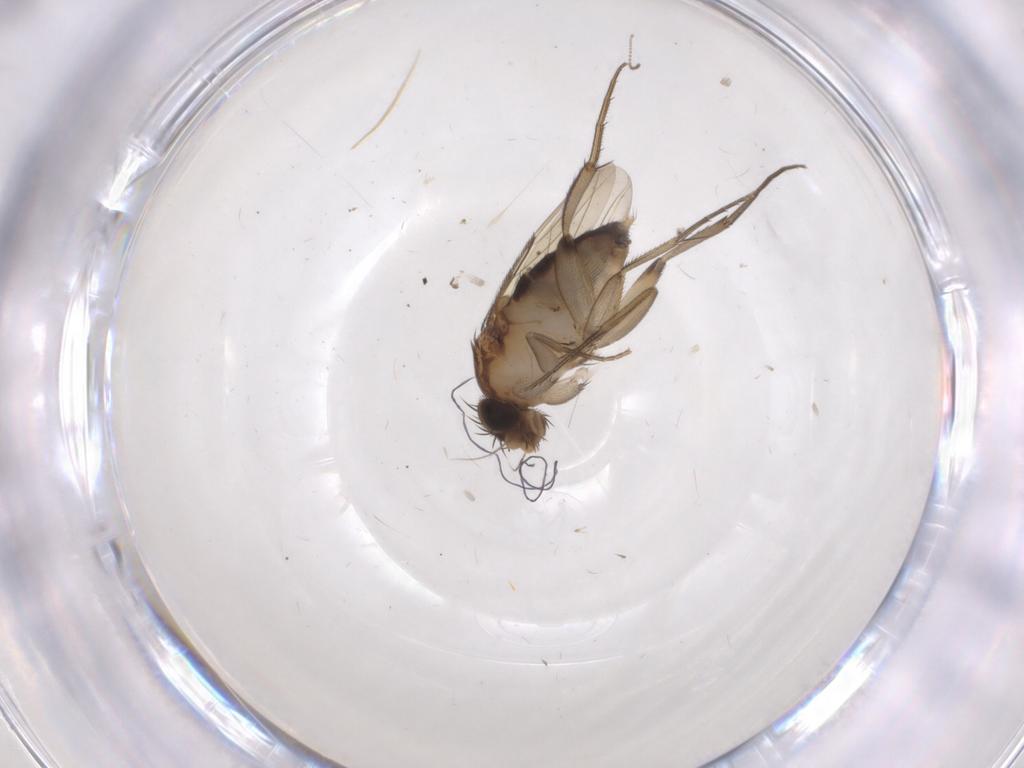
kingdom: Animalia
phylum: Arthropoda
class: Insecta
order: Diptera
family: Phoridae
